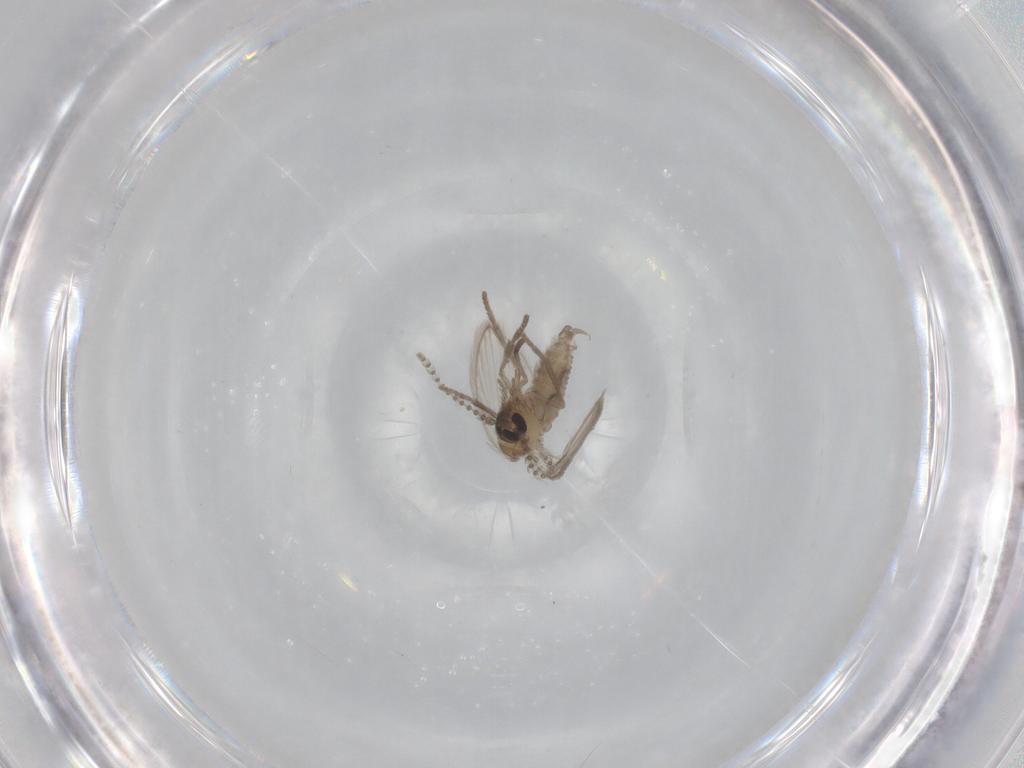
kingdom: Animalia
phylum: Arthropoda
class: Insecta
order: Diptera
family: Psychodidae
